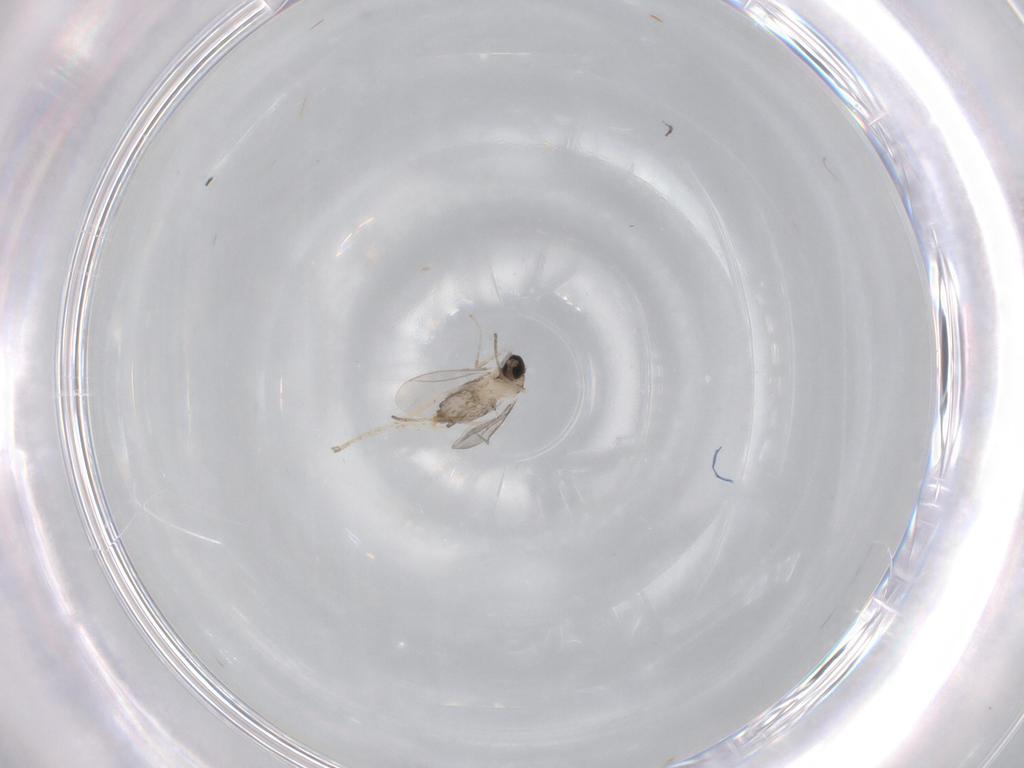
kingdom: Animalia
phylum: Arthropoda
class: Insecta
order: Diptera
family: Cecidomyiidae
